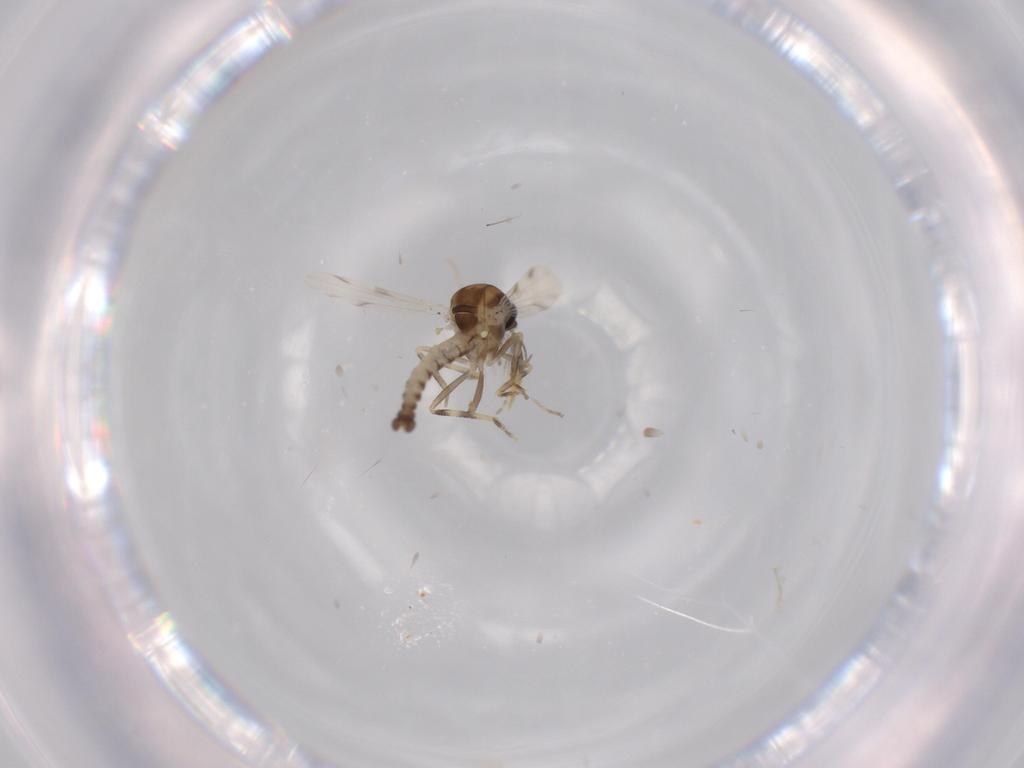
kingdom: Animalia
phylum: Arthropoda
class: Insecta
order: Diptera
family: Ceratopogonidae
